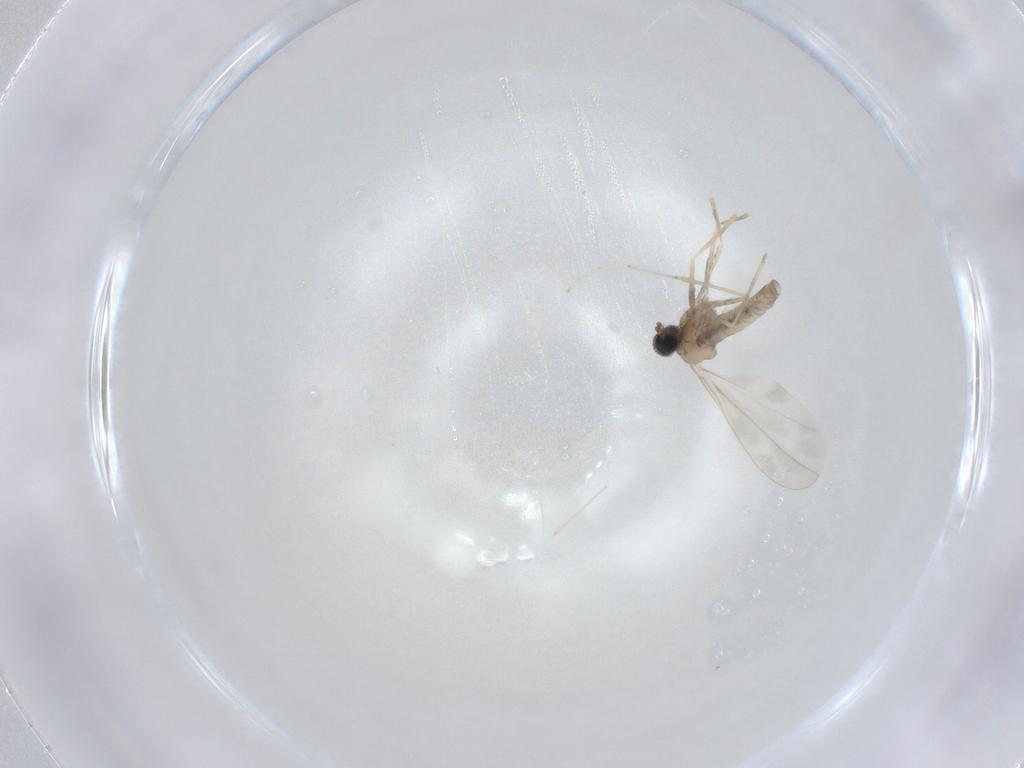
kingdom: Animalia
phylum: Arthropoda
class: Insecta
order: Diptera
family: Cecidomyiidae
